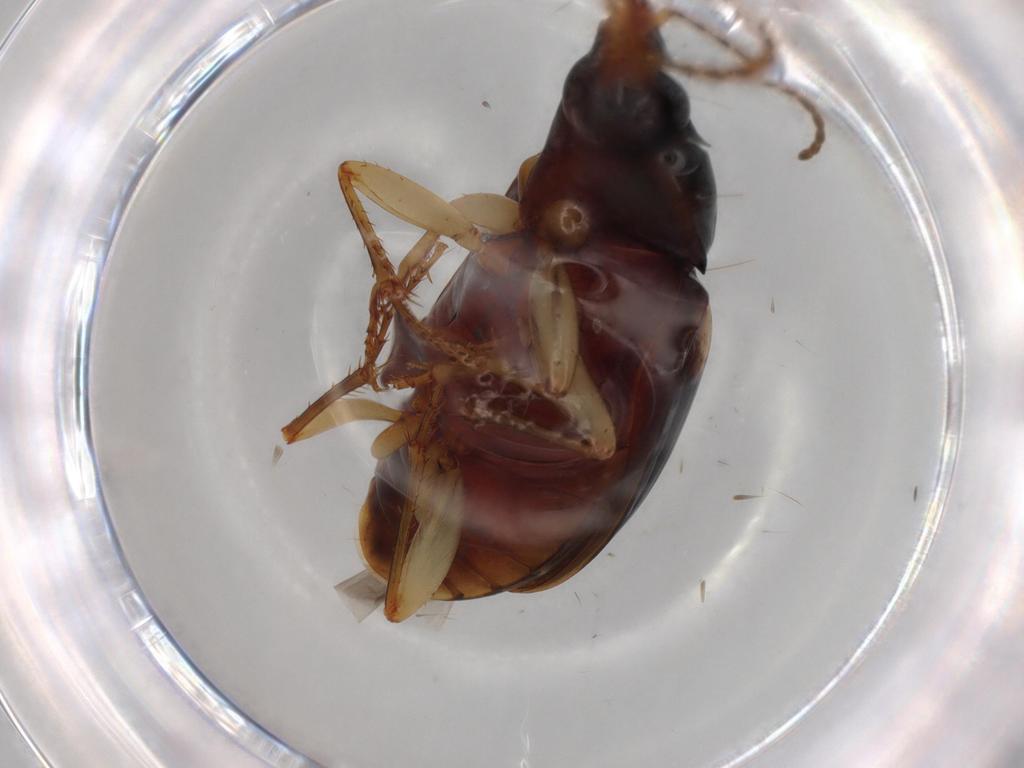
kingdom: Animalia
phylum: Arthropoda
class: Insecta
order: Coleoptera
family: Carabidae
